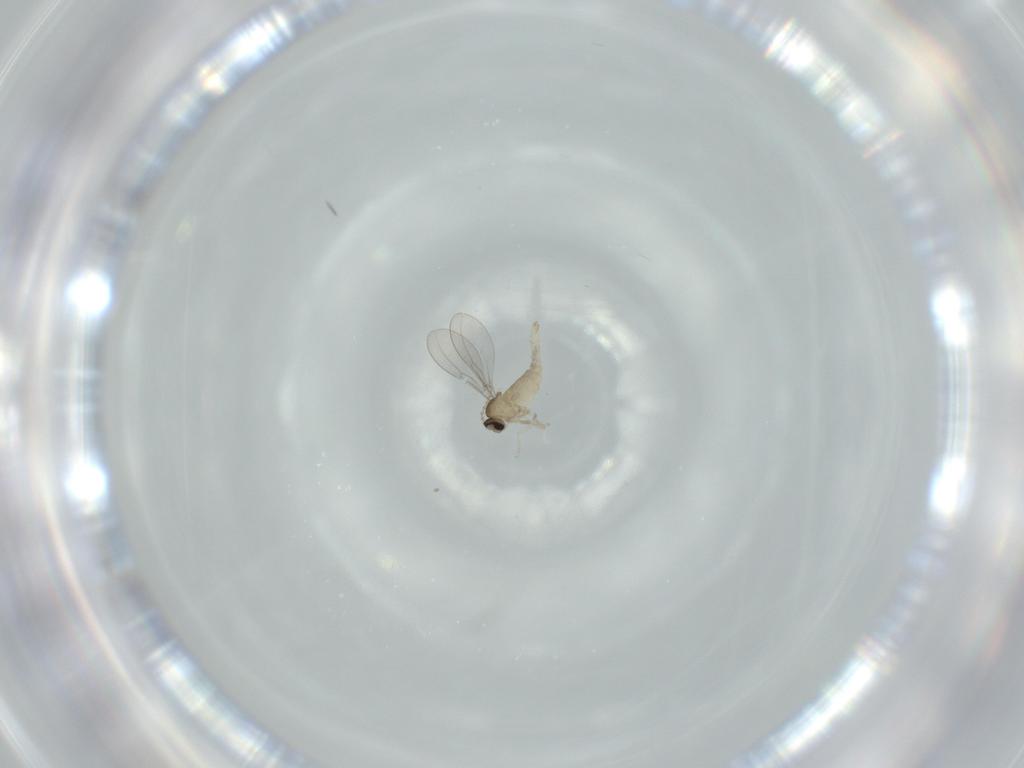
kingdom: Animalia
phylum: Arthropoda
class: Insecta
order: Diptera
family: Cecidomyiidae
